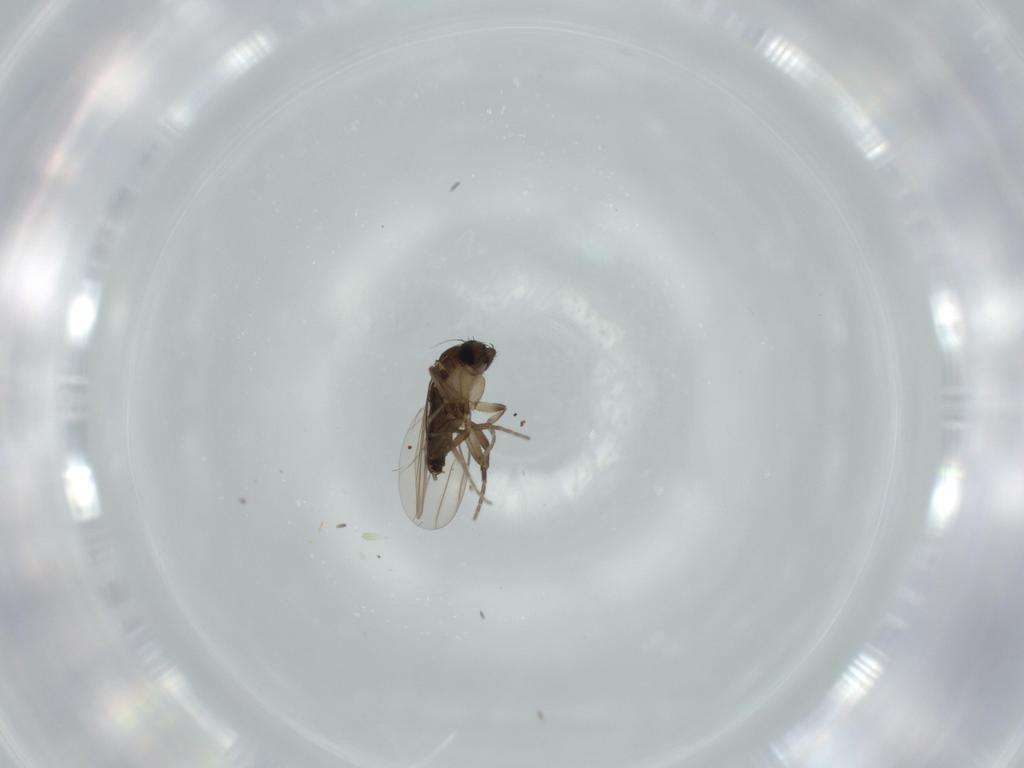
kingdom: Animalia
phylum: Arthropoda
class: Insecta
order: Diptera
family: Phoridae
